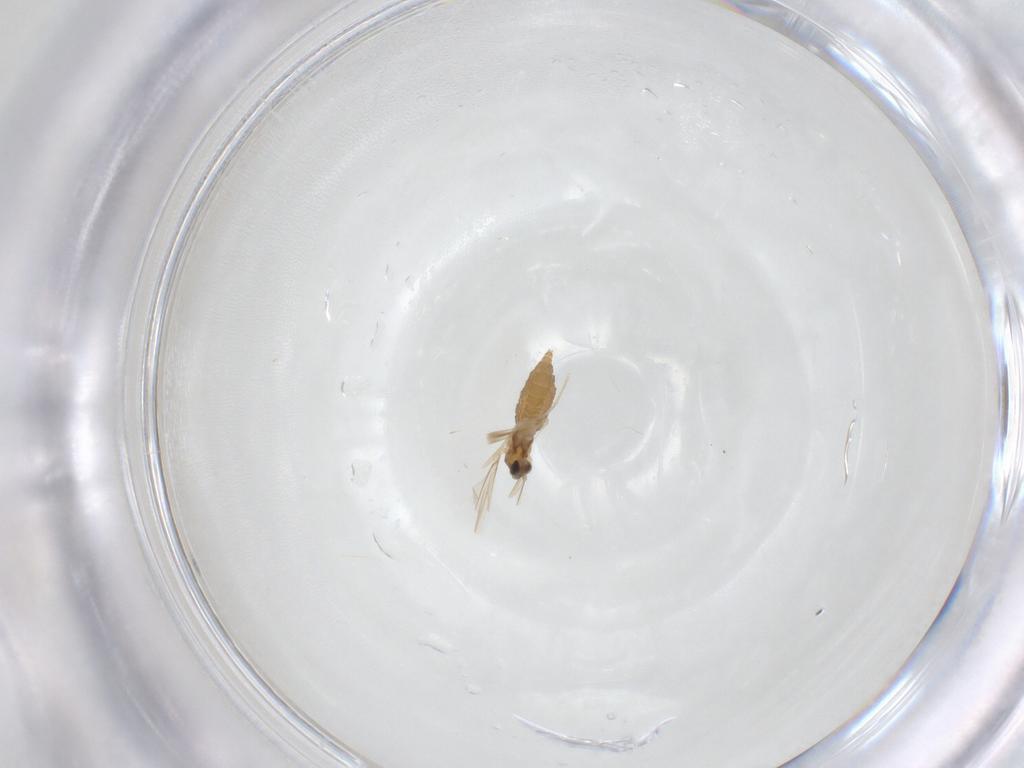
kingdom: Animalia
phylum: Arthropoda
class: Insecta
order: Diptera
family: Cecidomyiidae
